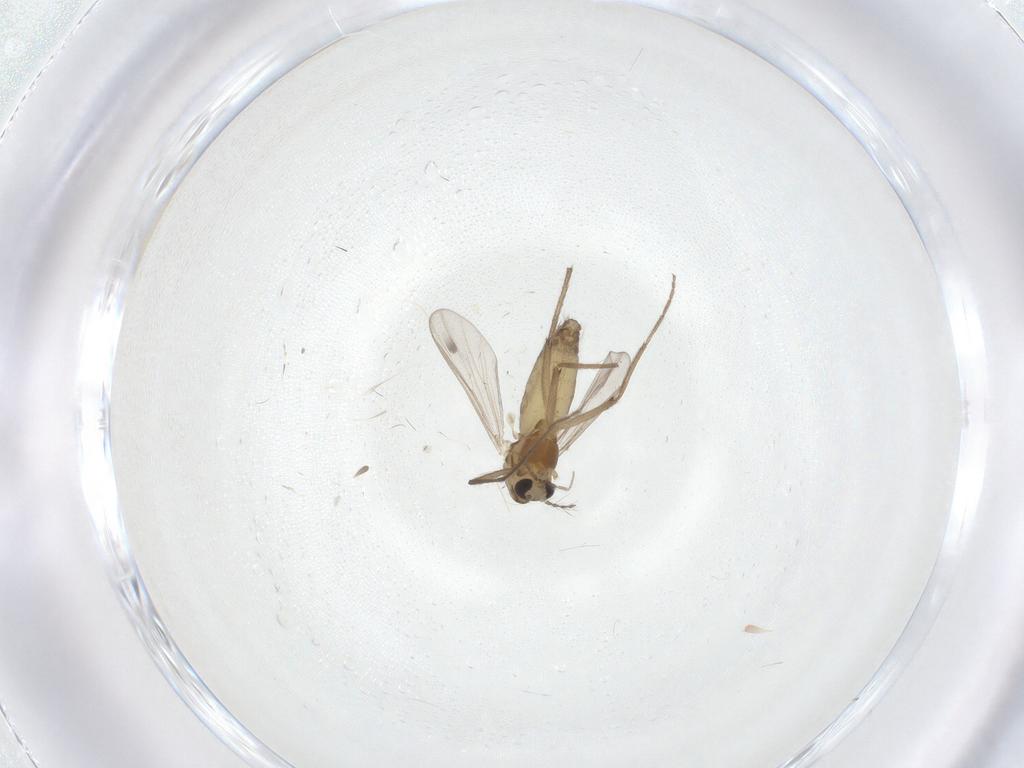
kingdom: Animalia
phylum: Arthropoda
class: Insecta
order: Diptera
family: Chironomidae
